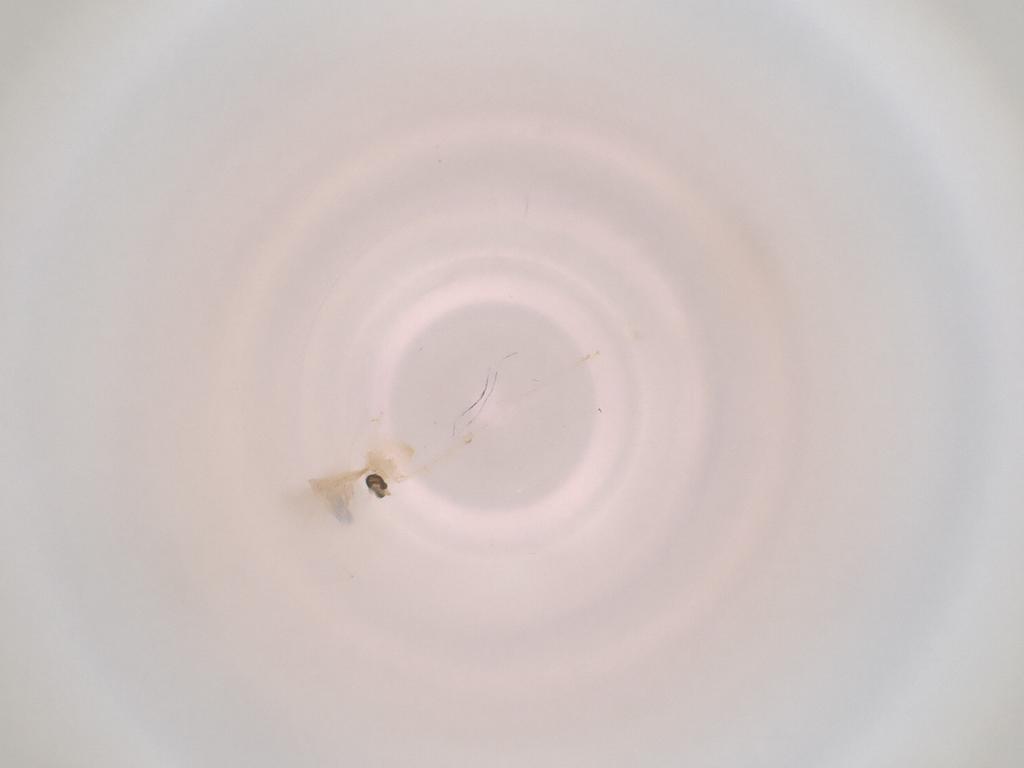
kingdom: Animalia
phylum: Arthropoda
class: Insecta
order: Diptera
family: Cecidomyiidae
